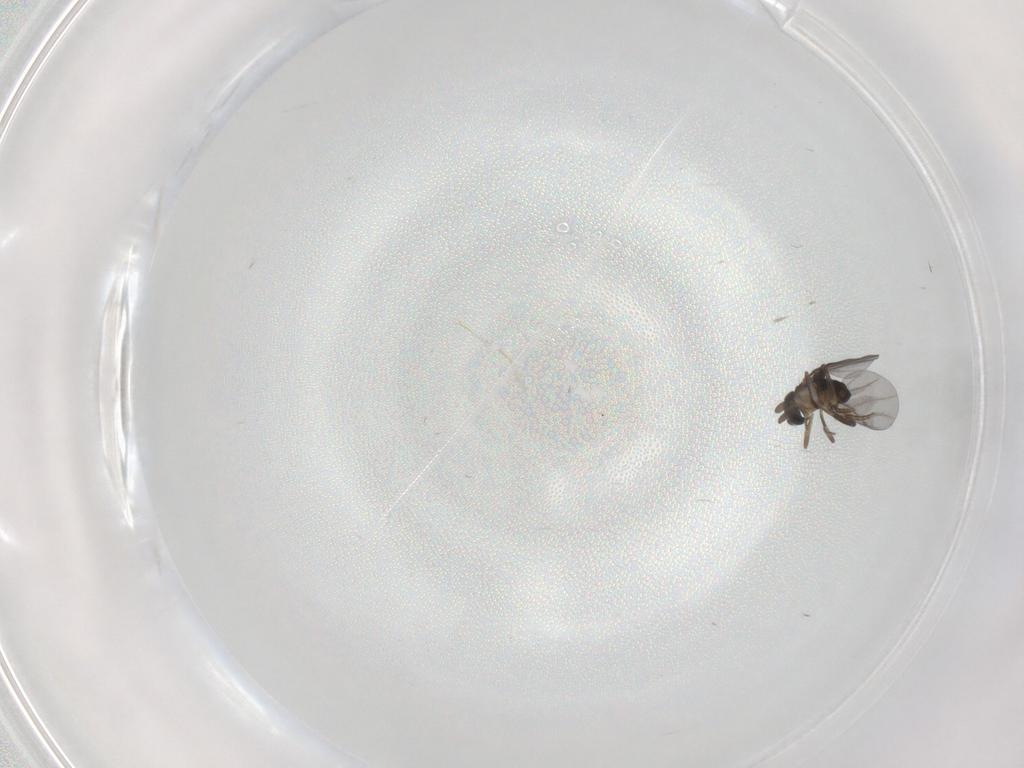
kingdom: Animalia
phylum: Arthropoda
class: Insecta
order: Diptera
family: Phoridae
